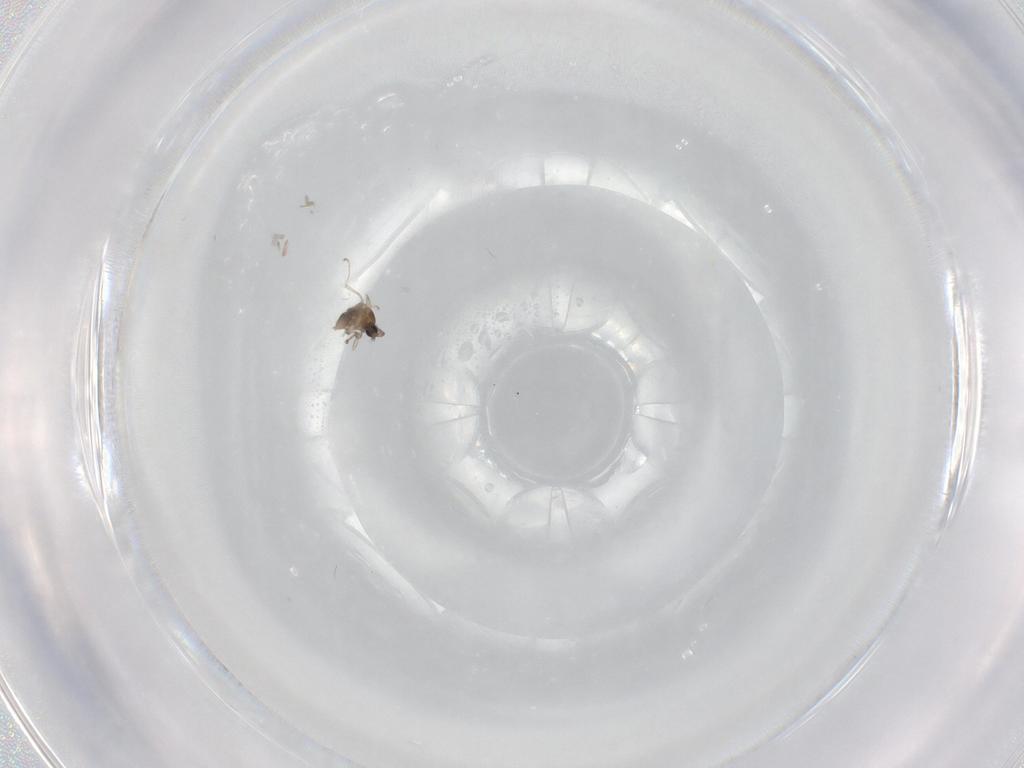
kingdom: Animalia
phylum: Arthropoda
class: Insecta
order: Diptera
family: Cecidomyiidae
